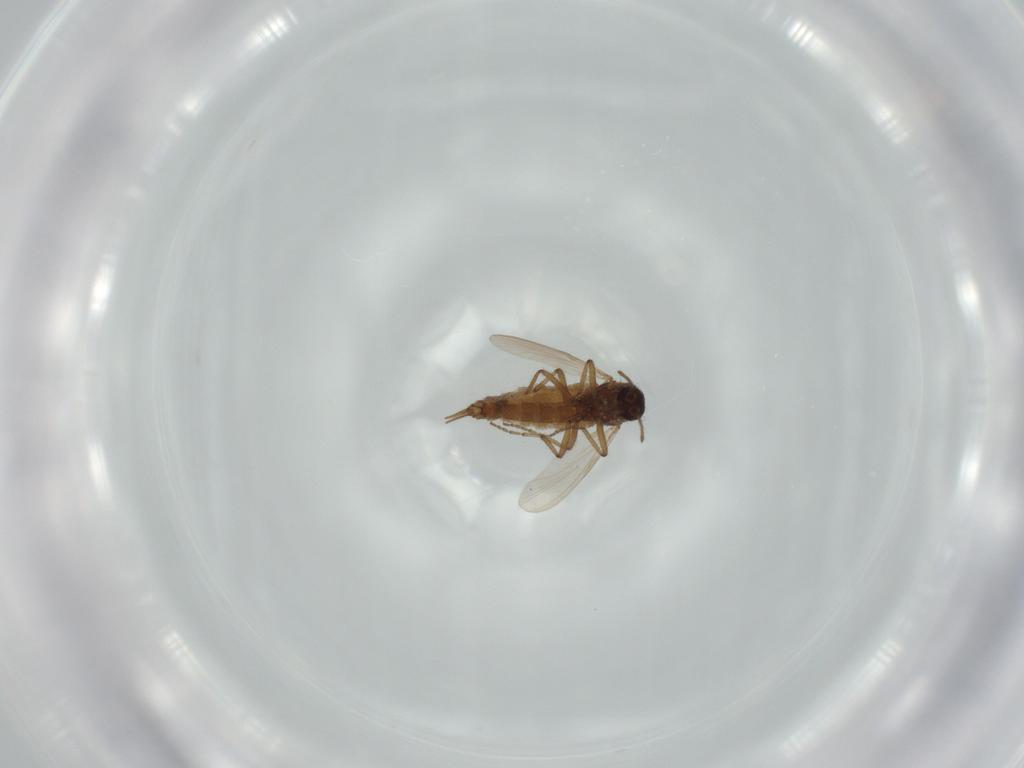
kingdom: Animalia
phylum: Arthropoda
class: Insecta
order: Diptera
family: Ceratopogonidae
